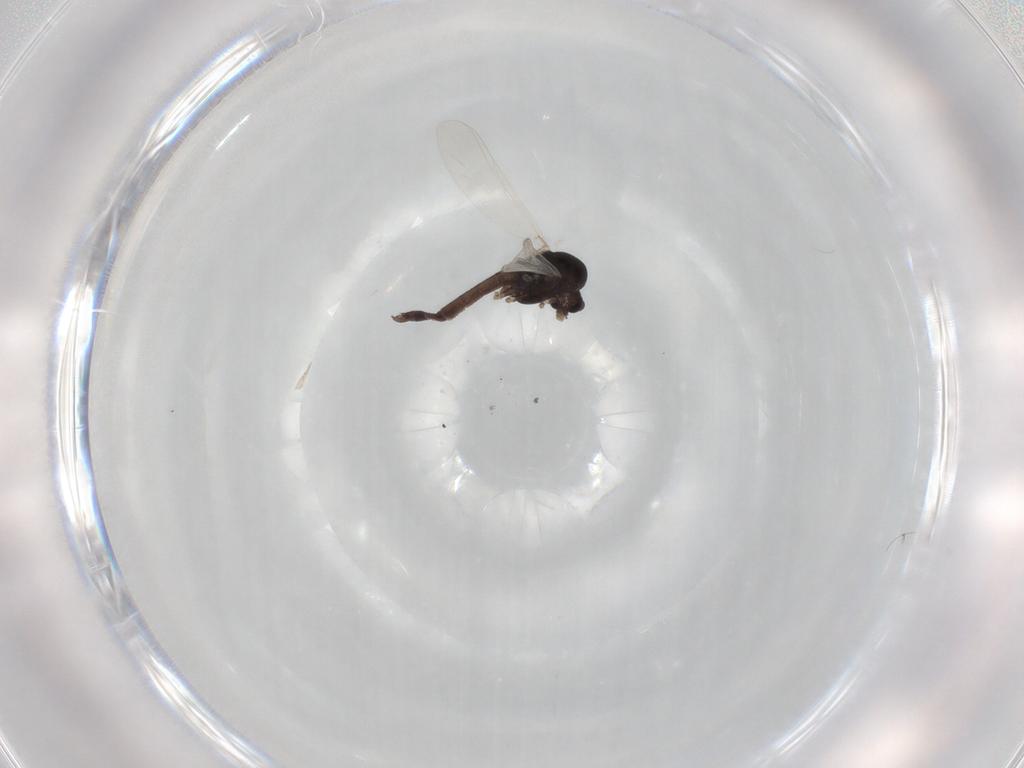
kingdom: Animalia
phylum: Arthropoda
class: Insecta
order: Diptera
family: Chironomidae
